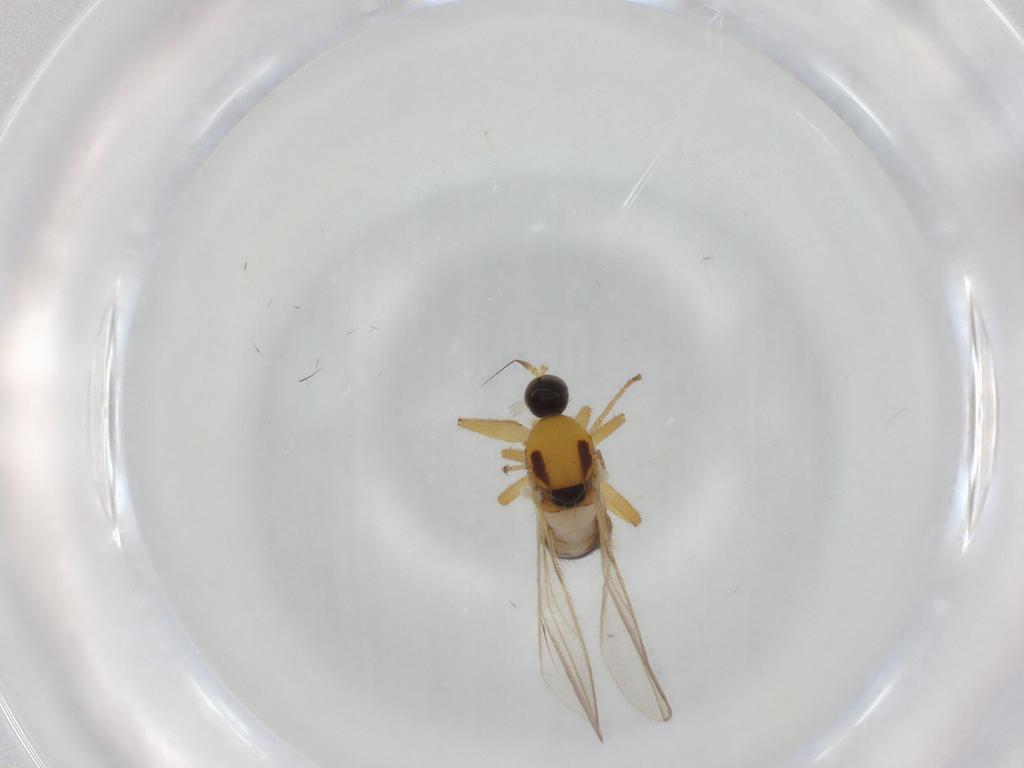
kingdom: Animalia
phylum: Arthropoda
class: Insecta
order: Diptera
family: Hybotidae
